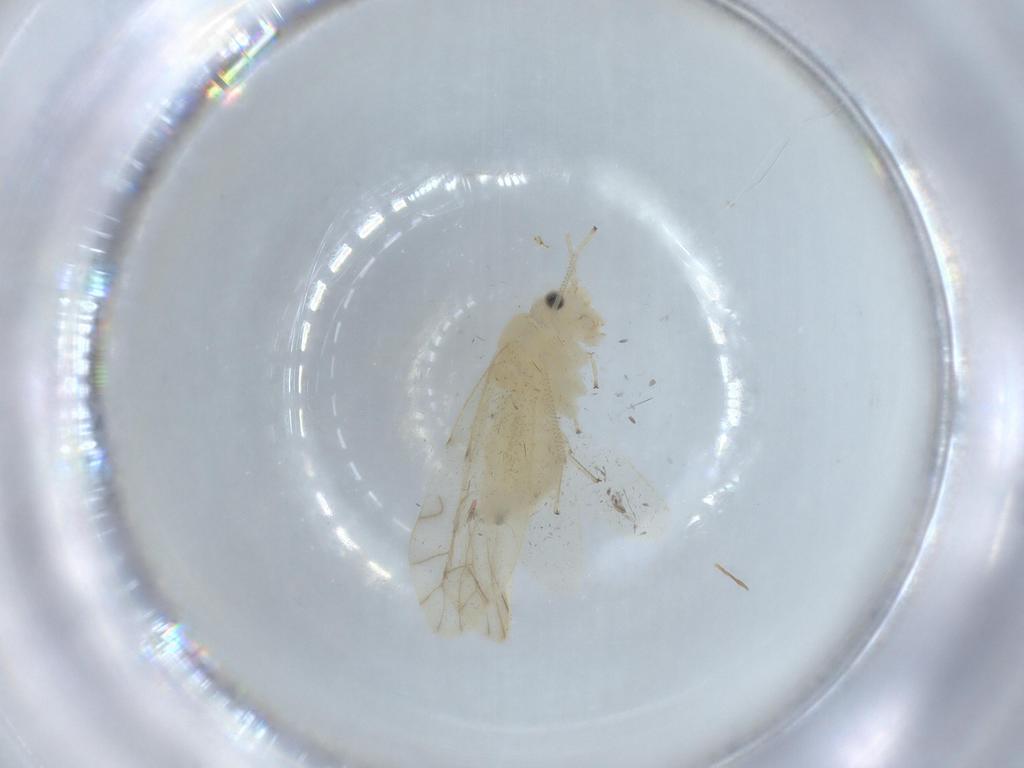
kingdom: Animalia
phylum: Arthropoda
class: Insecta
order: Psocodea
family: Caeciliusidae
